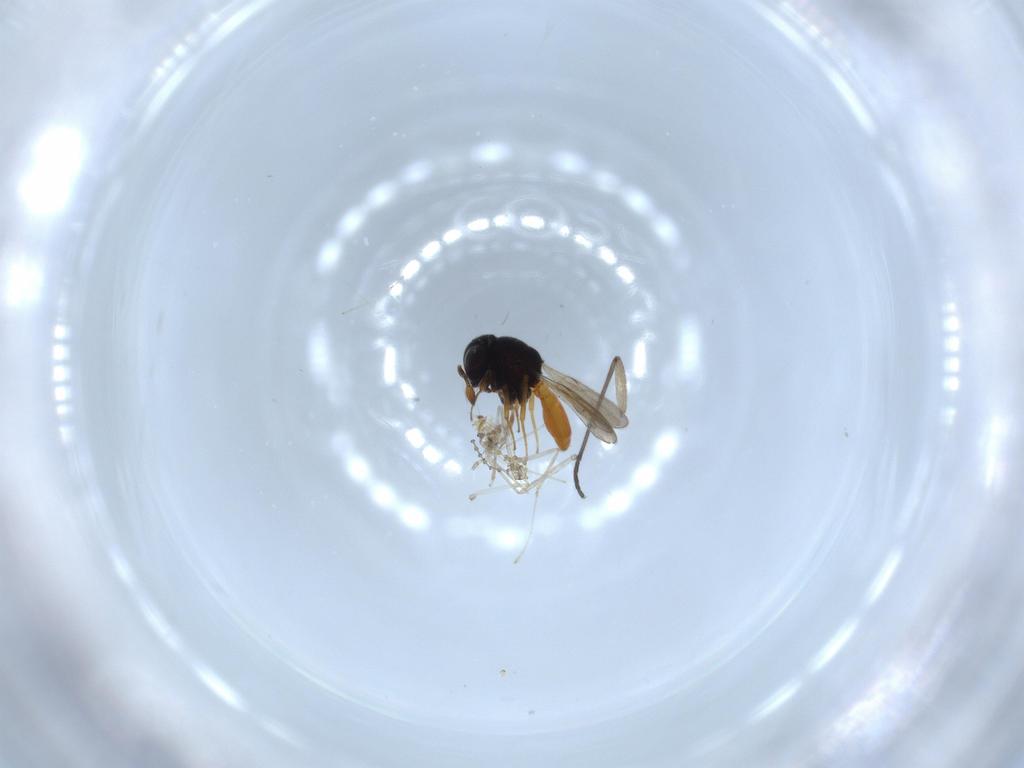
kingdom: Animalia
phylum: Arthropoda
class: Insecta
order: Hymenoptera
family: Scelionidae
